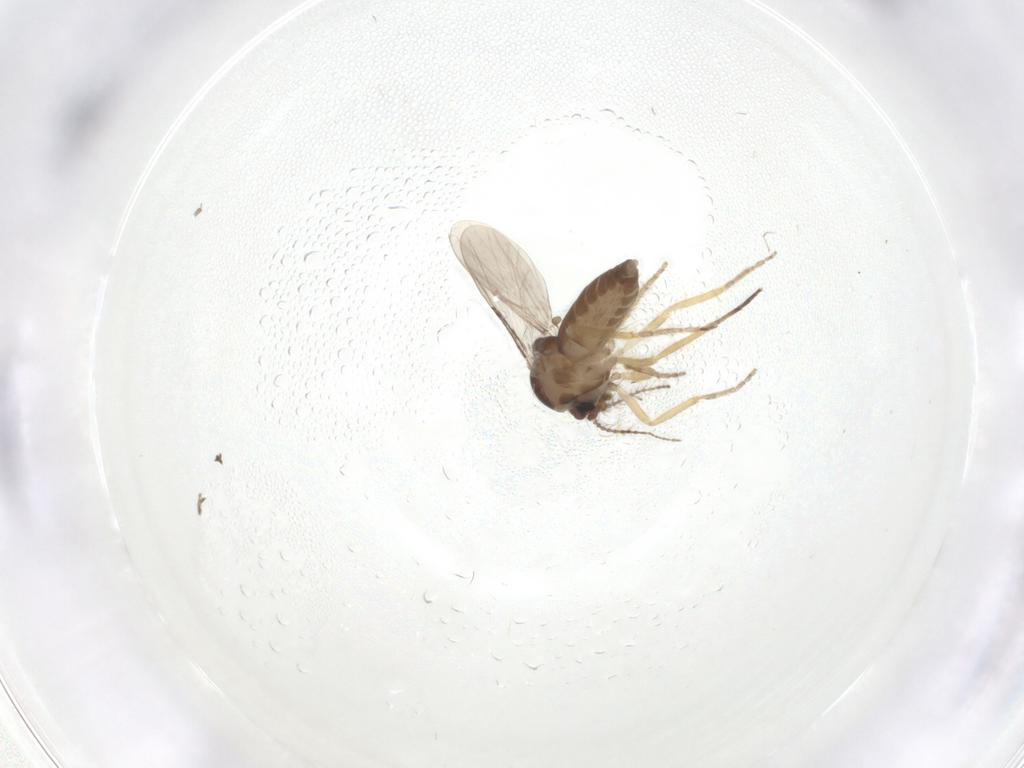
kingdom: Animalia
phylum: Arthropoda
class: Insecta
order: Diptera
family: Ceratopogonidae
